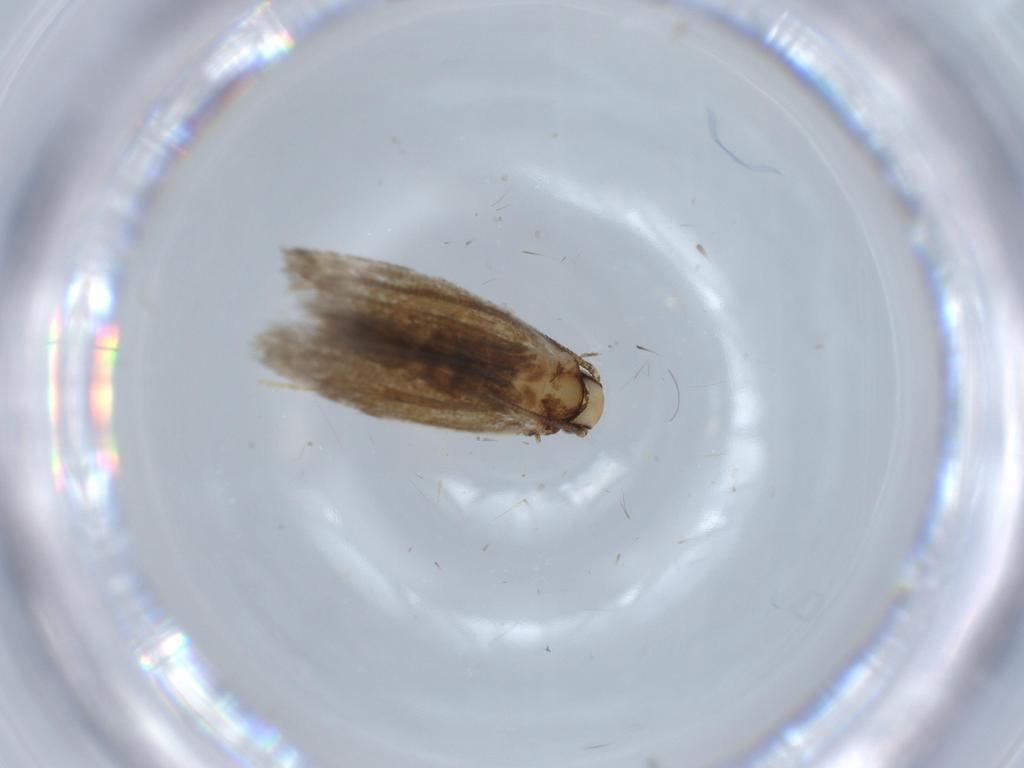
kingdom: Animalia
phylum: Arthropoda
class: Insecta
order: Lepidoptera
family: Tineidae
